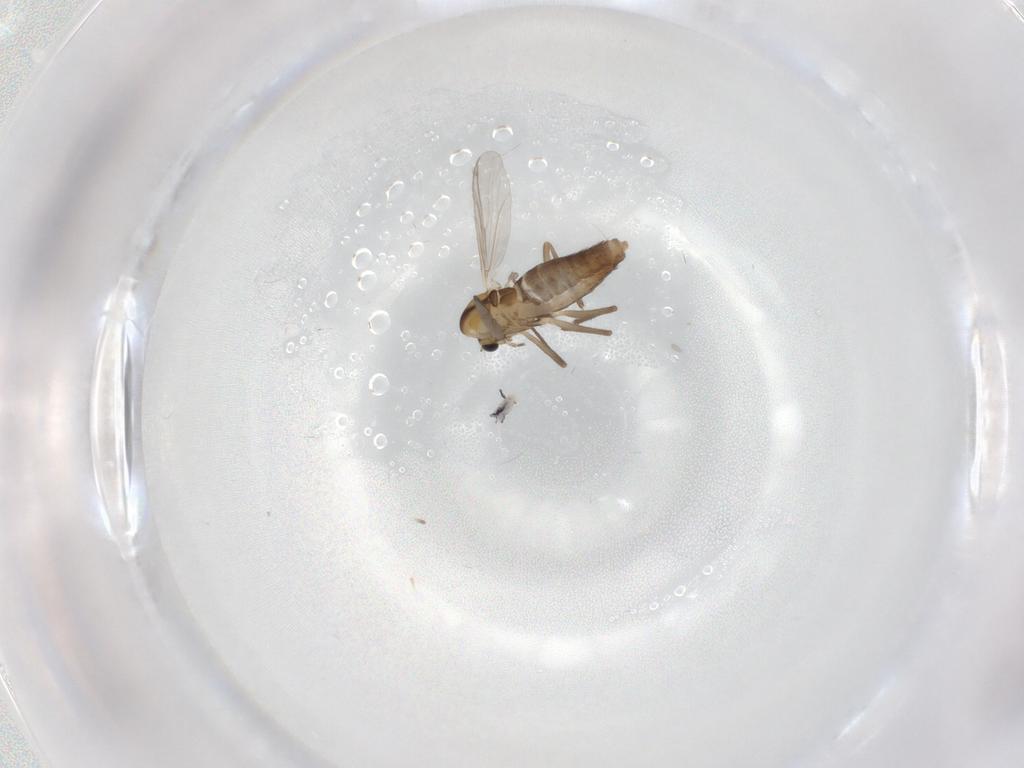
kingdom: Animalia
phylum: Arthropoda
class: Insecta
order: Diptera
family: Chironomidae
